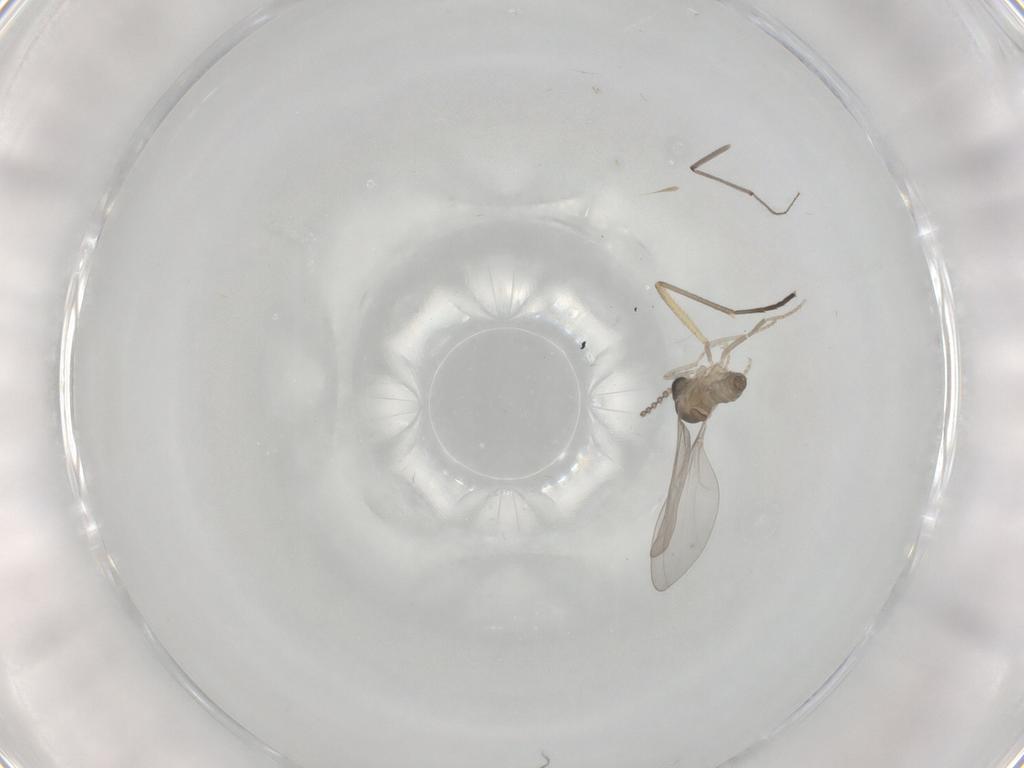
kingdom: Animalia
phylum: Arthropoda
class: Insecta
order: Diptera
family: Cecidomyiidae
